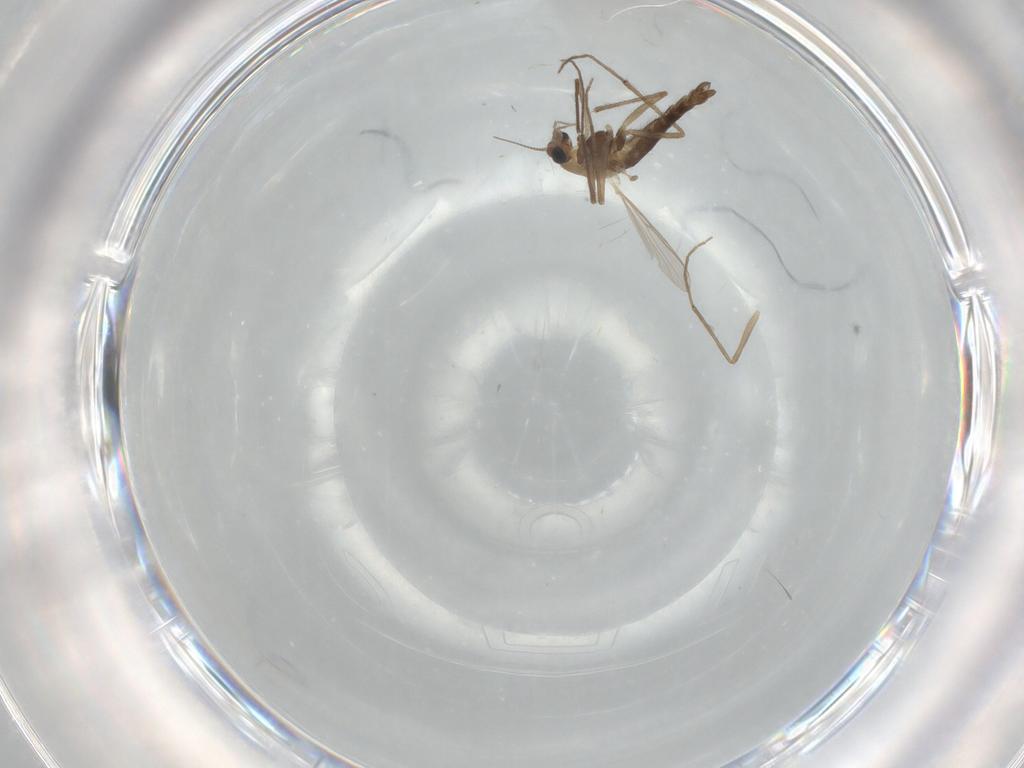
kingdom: Animalia
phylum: Arthropoda
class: Insecta
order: Diptera
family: Chironomidae
